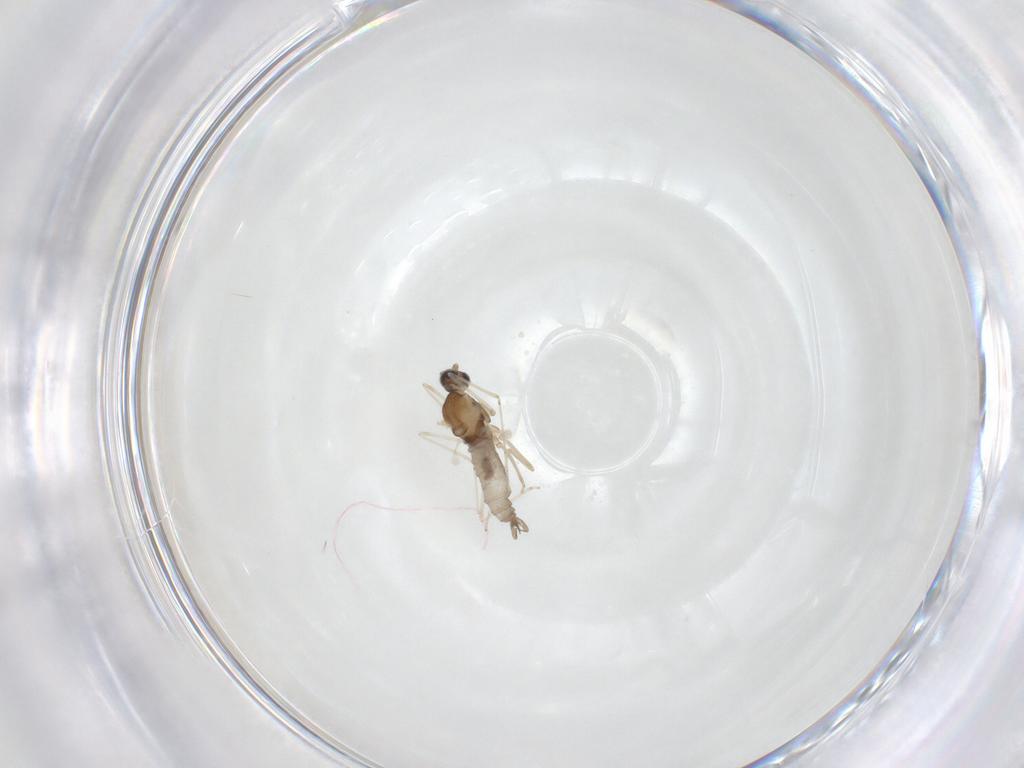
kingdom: Animalia
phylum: Arthropoda
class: Insecta
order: Diptera
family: Cecidomyiidae
